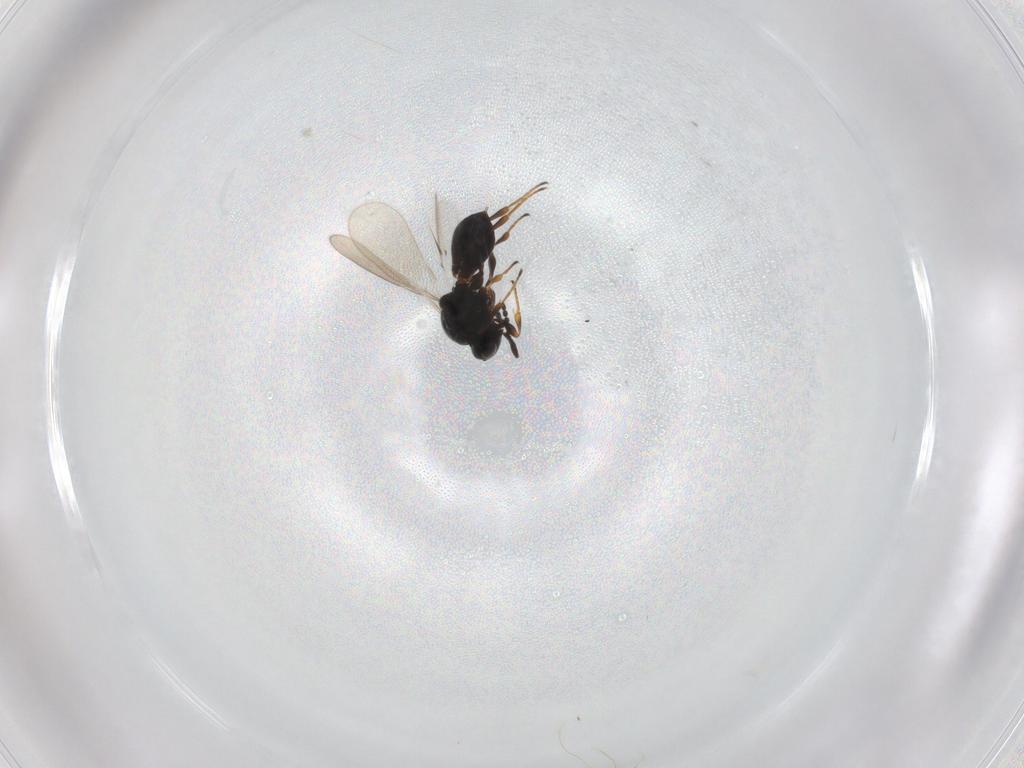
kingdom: Animalia
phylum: Arthropoda
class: Insecta
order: Hymenoptera
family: Platygastridae
